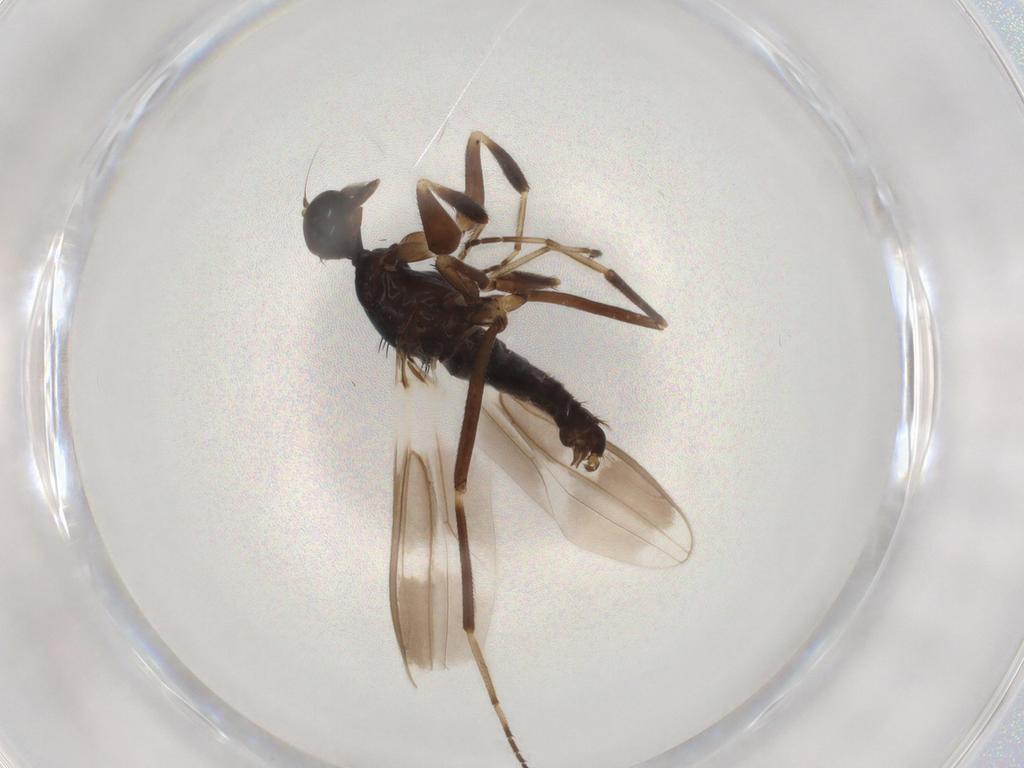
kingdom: Animalia
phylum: Arthropoda
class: Insecta
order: Diptera
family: Hybotidae
